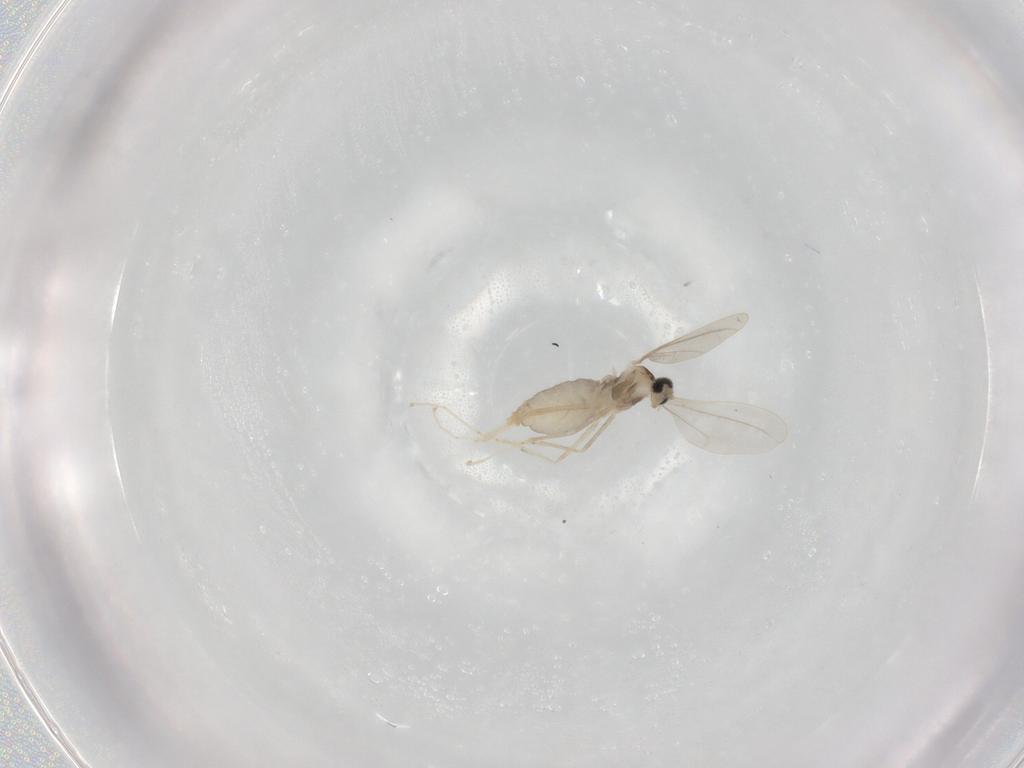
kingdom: Animalia
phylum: Arthropoda
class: Insecta
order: Diptera
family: Cecidomyiidae
